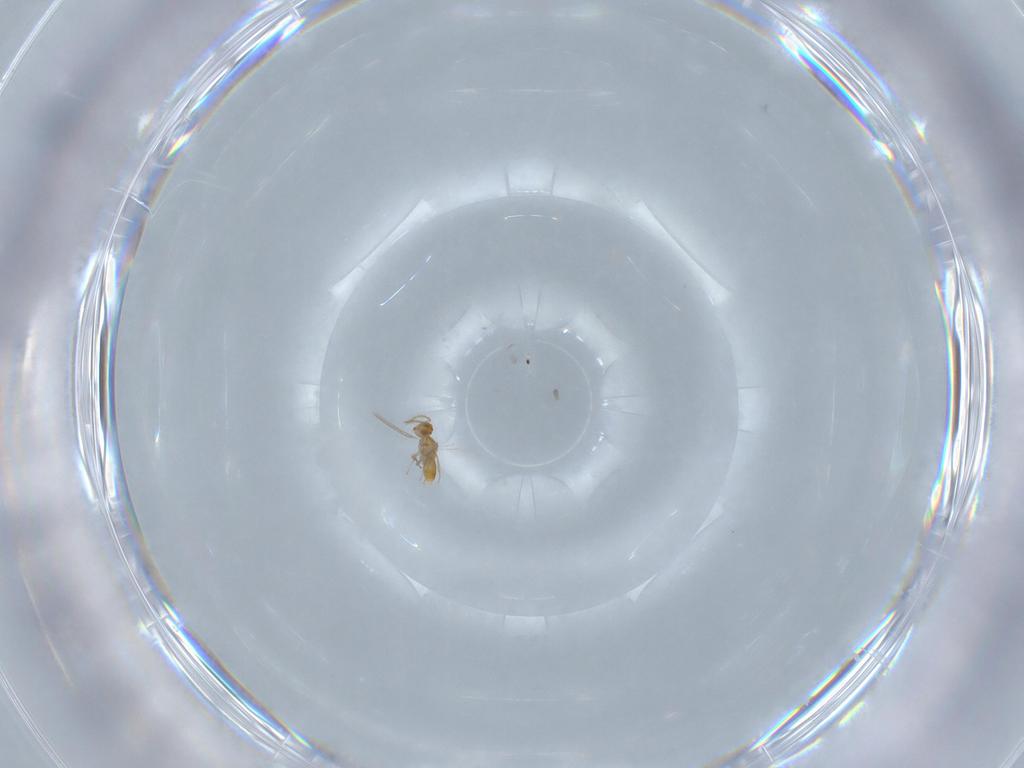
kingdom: Animalia
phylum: Arthropoda
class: Insecta
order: Hymenoptera
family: Aphelinidae
